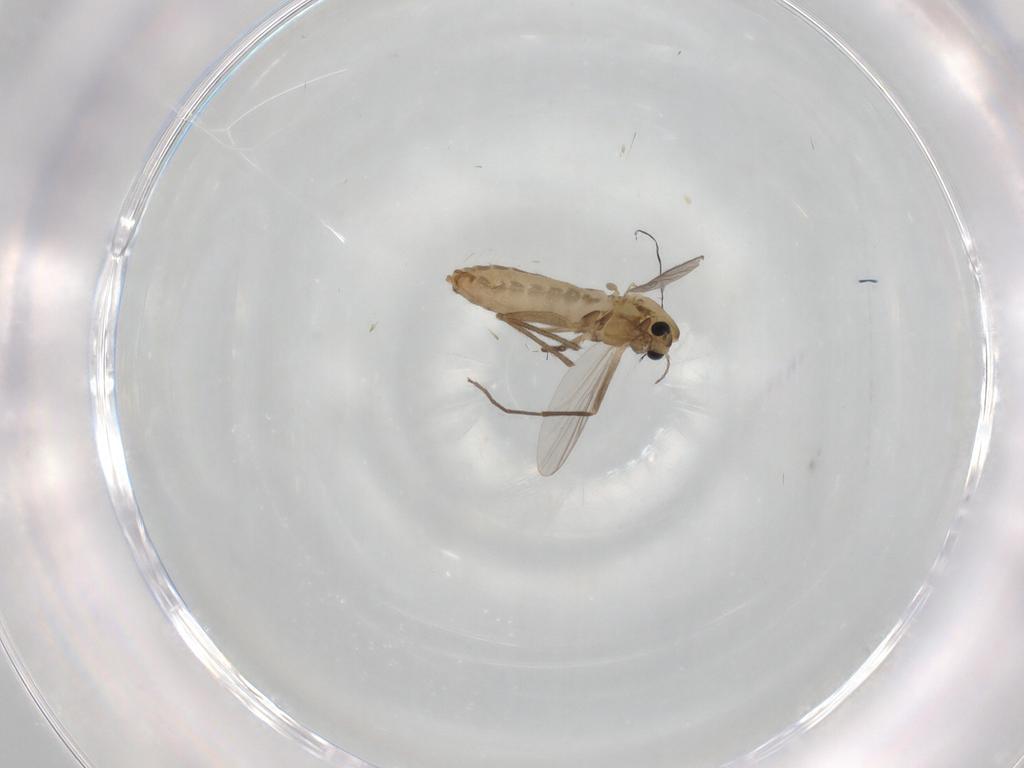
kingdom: Animalia
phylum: Arthropoda
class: Insecta
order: Diptera
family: Chironomidae
